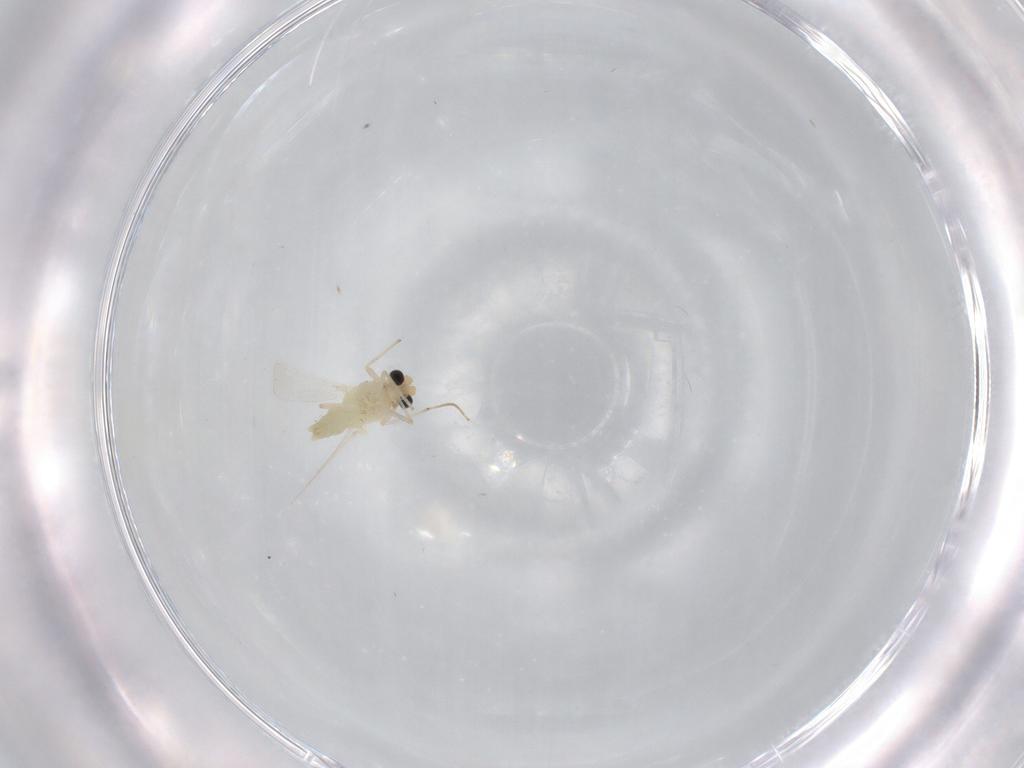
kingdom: Animalia
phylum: Arthropoda
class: Insecta
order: Diptera
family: Chironomidae
